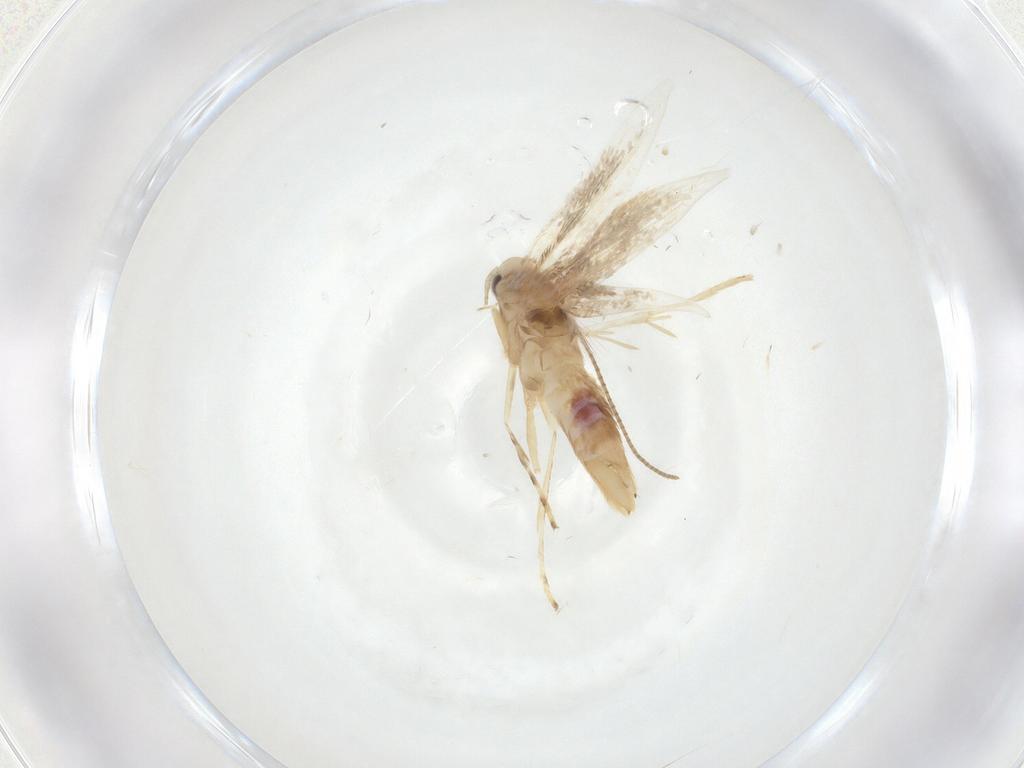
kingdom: Animalia
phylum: Arthropoda
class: Insecta
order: Lepidoptera
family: Gracillariidae
